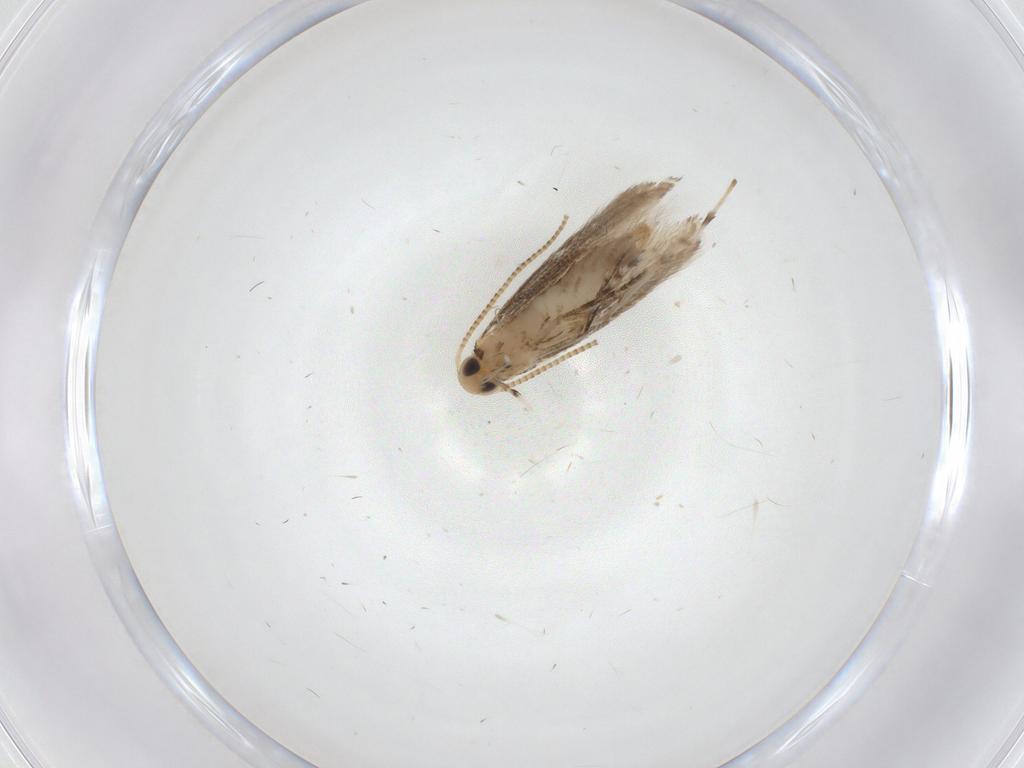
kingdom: Animalia
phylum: Arthropoda
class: Insecta
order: Lepidoptera
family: Gracillariidae
